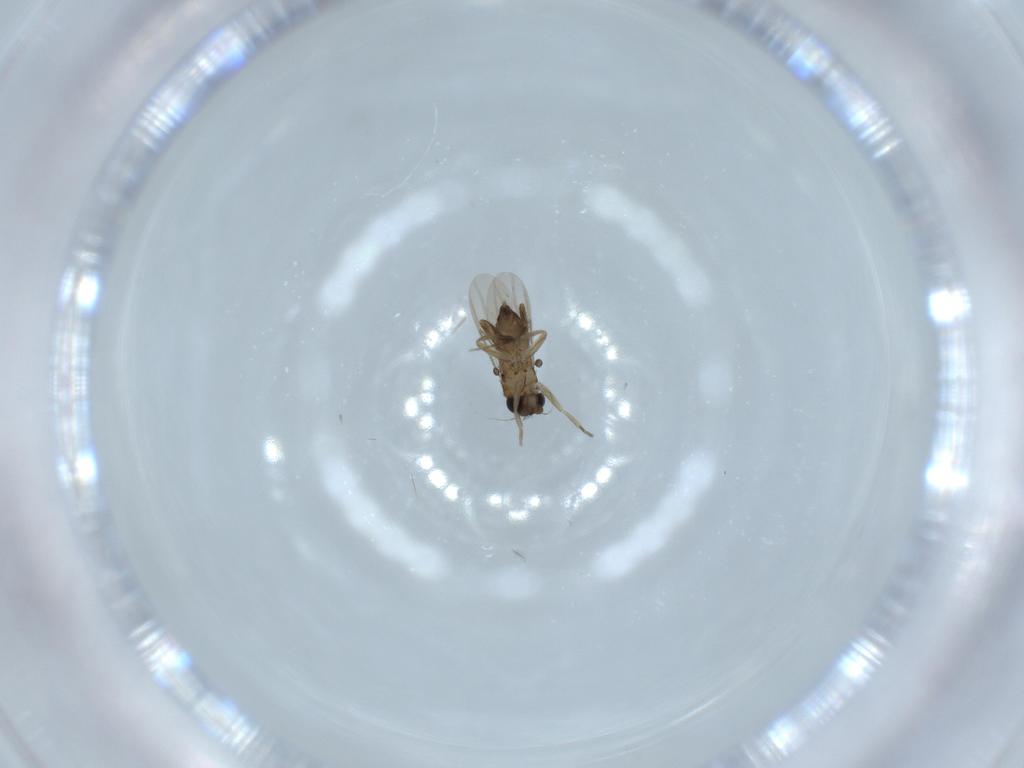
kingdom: Animalia
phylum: Arthropoda
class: Insecta
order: Diptera
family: Phoridae
